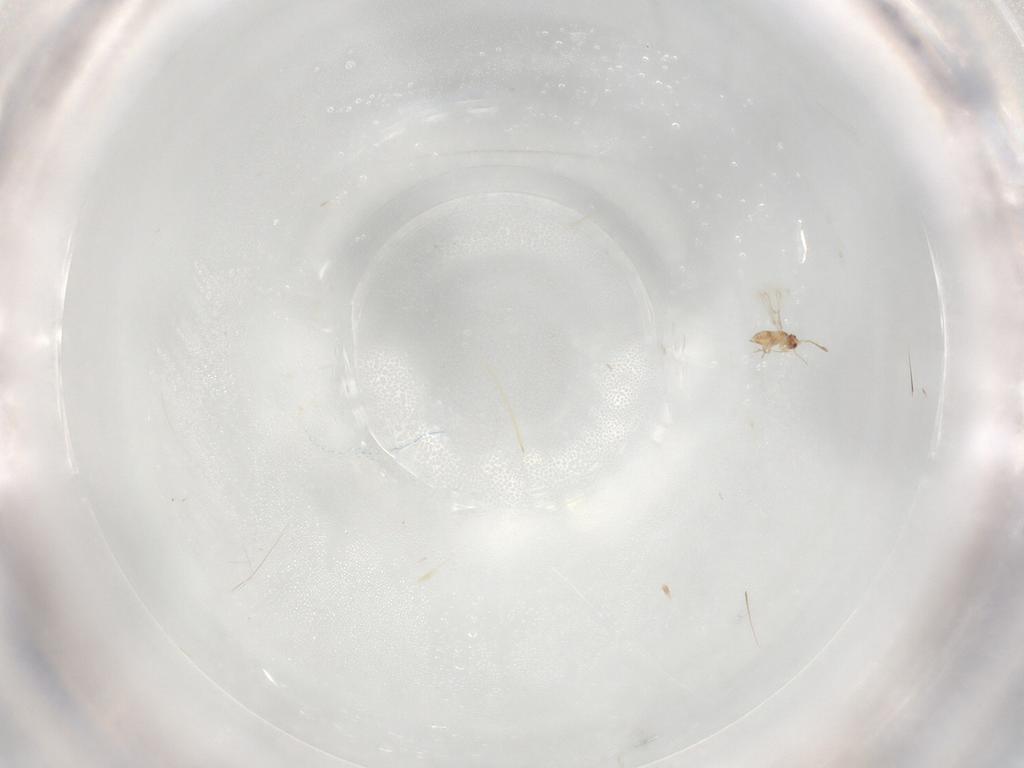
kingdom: Animalia
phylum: Arthropoda
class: Insecta
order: Diptera
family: Chironomidae
